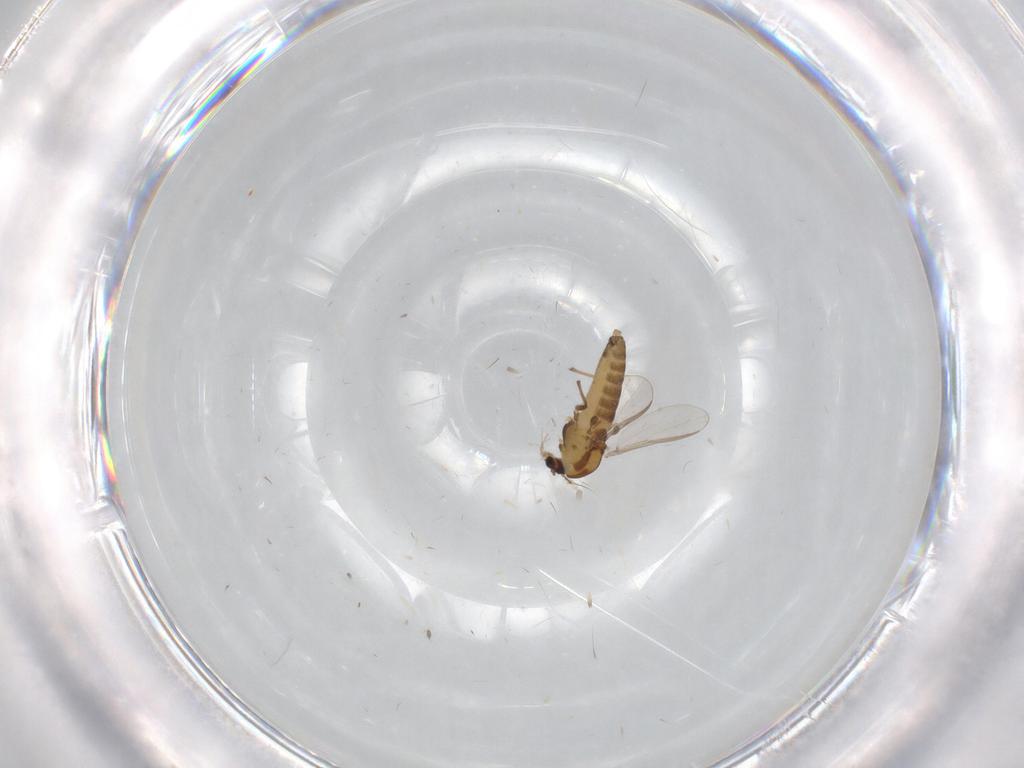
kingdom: Animalia
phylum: Arthropoda
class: Insecta
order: Diptera
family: Chironomidae
